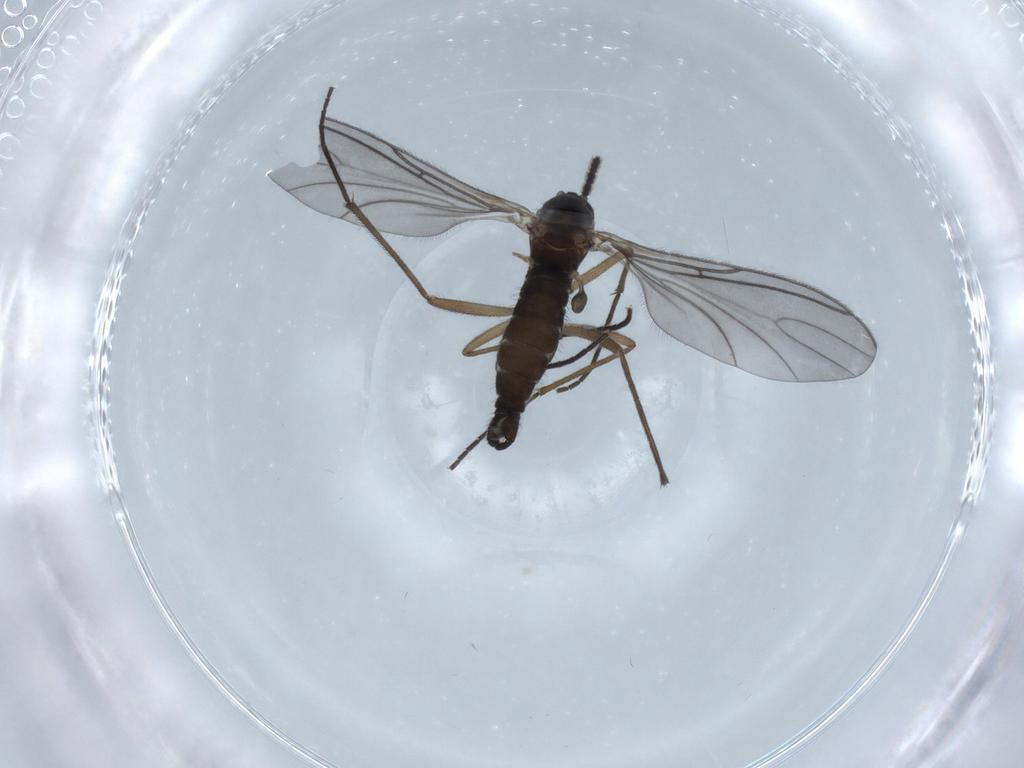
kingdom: Animalia
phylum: Arthropoda
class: Insecta
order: Diptera
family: Sciaridae
